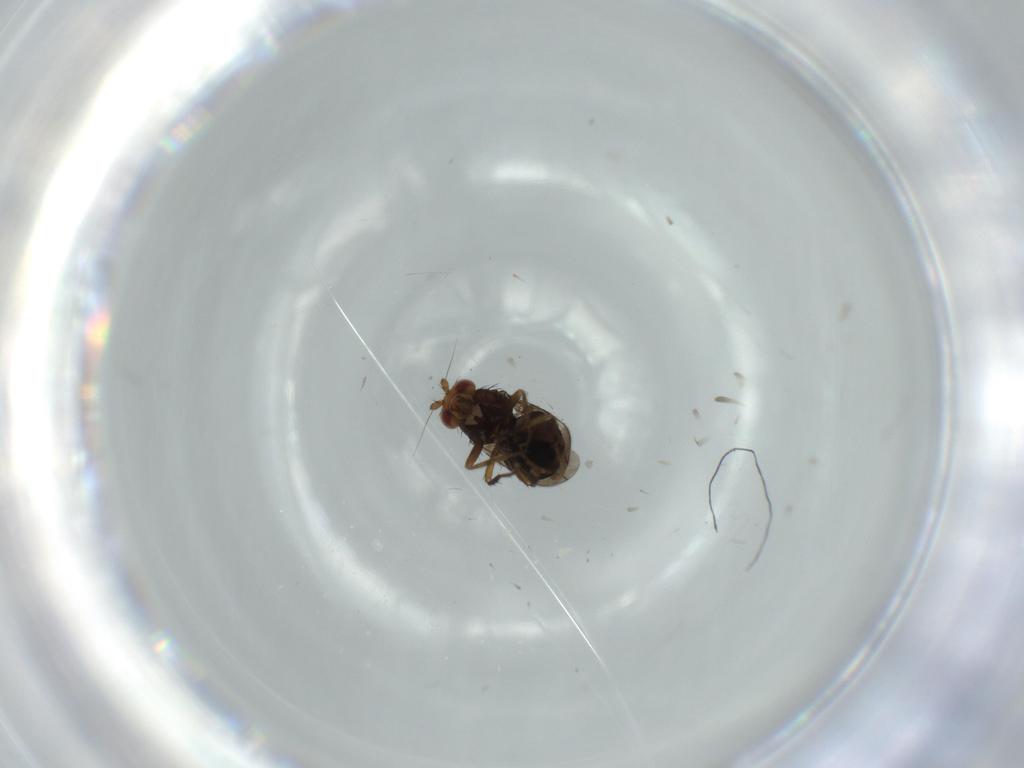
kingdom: Animalia
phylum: Arthropoda
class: Insecta
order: Diptera
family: Sphaeroceridae
